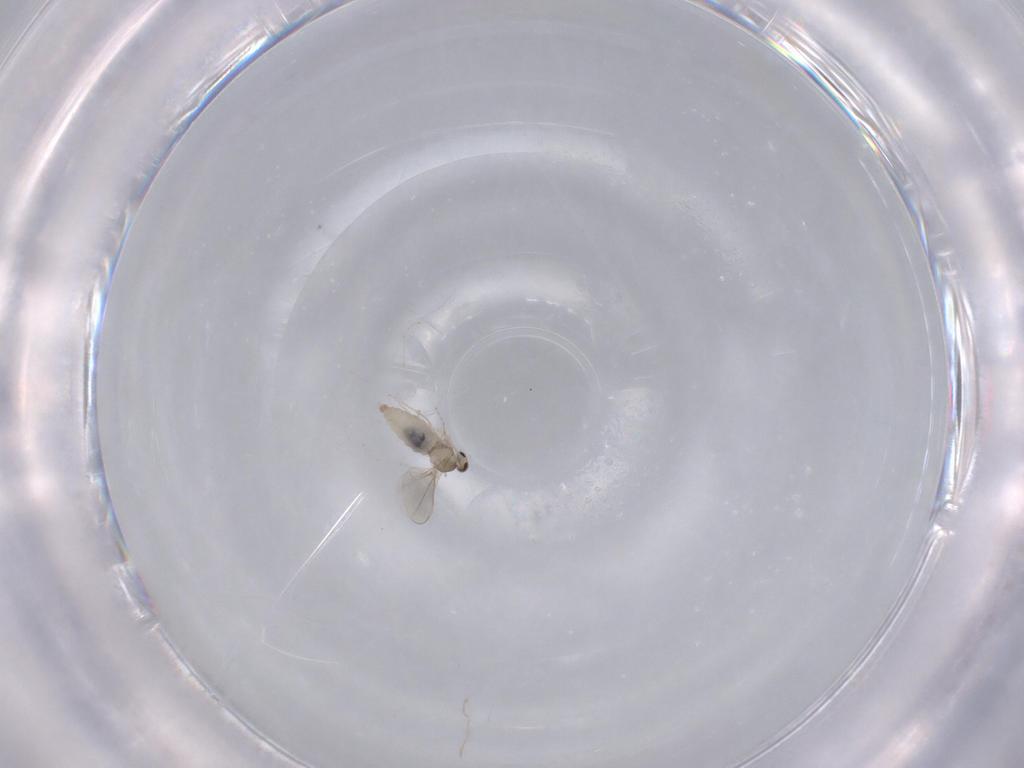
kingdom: Animalia
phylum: Arthropoda
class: Insecta
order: Diptera
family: Cecidomyiidae
